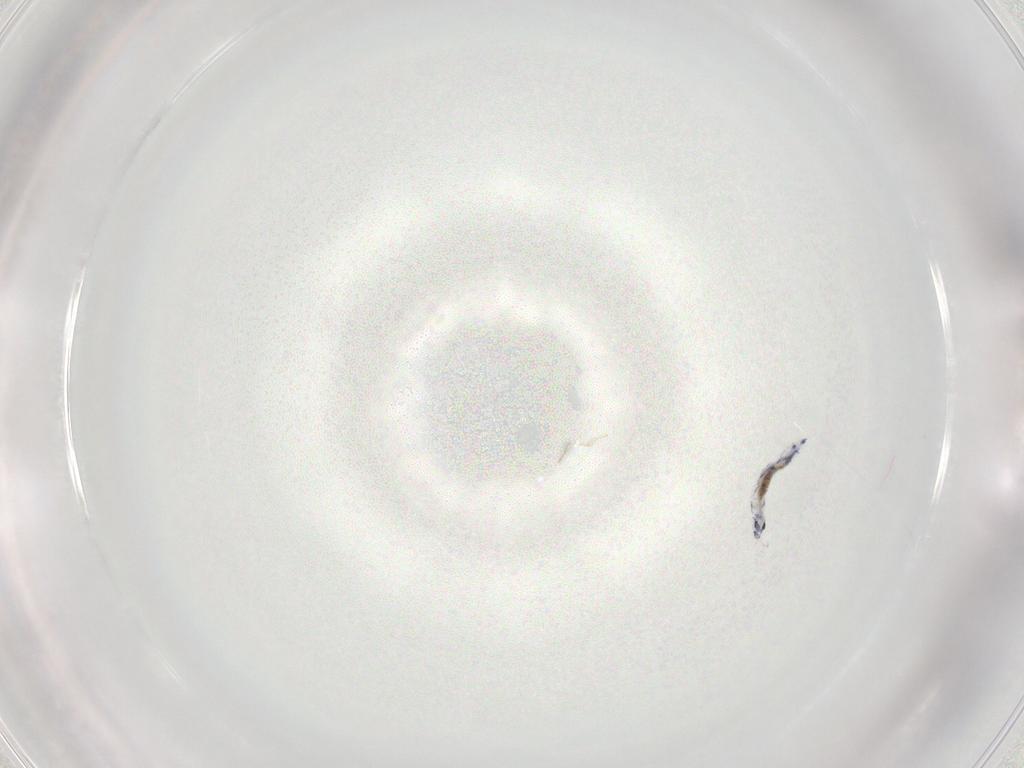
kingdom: Animalia
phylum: Arthropoda
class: Collembola
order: Entomobryomorpha
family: Entomobryidae
